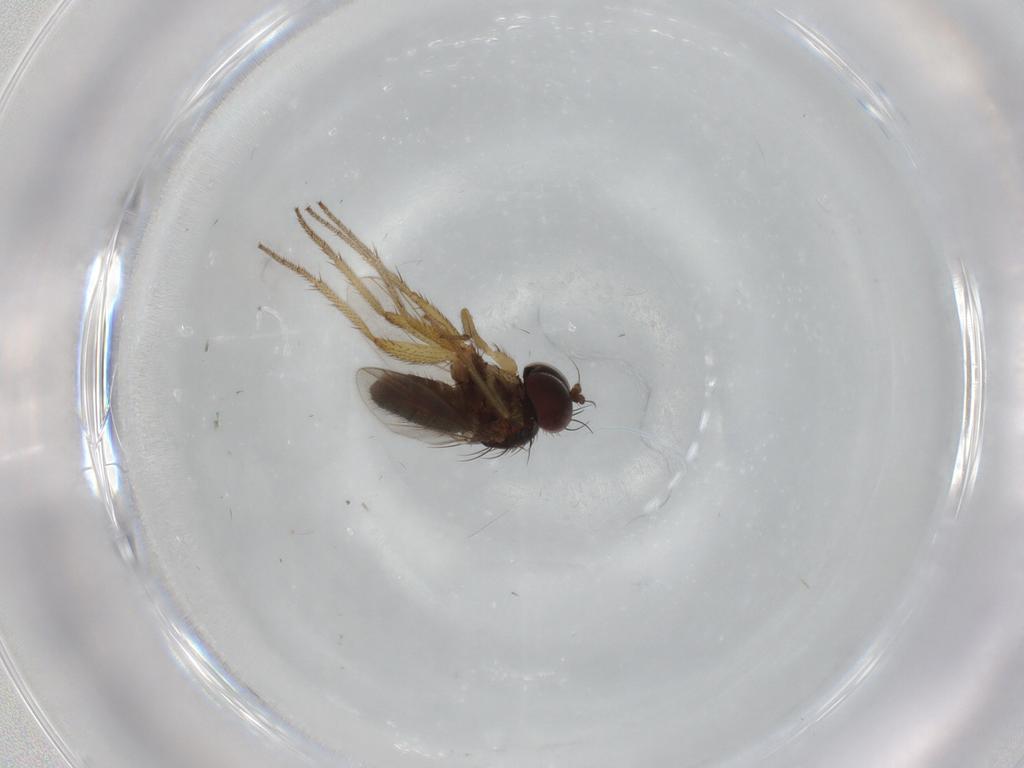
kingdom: Animalia
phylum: Arthropoda
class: Insecta
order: Diptera
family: Dolichopodidae
